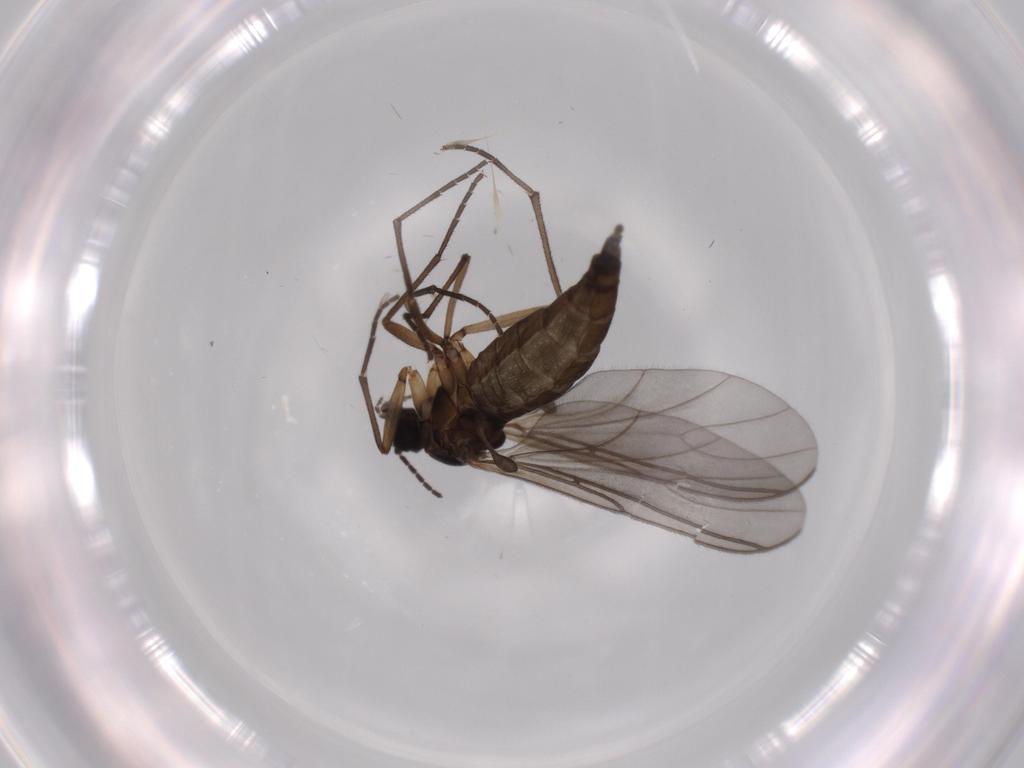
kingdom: Animalia
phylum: Arthropoda
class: Insecta
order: Diptera
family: Sciaridae
